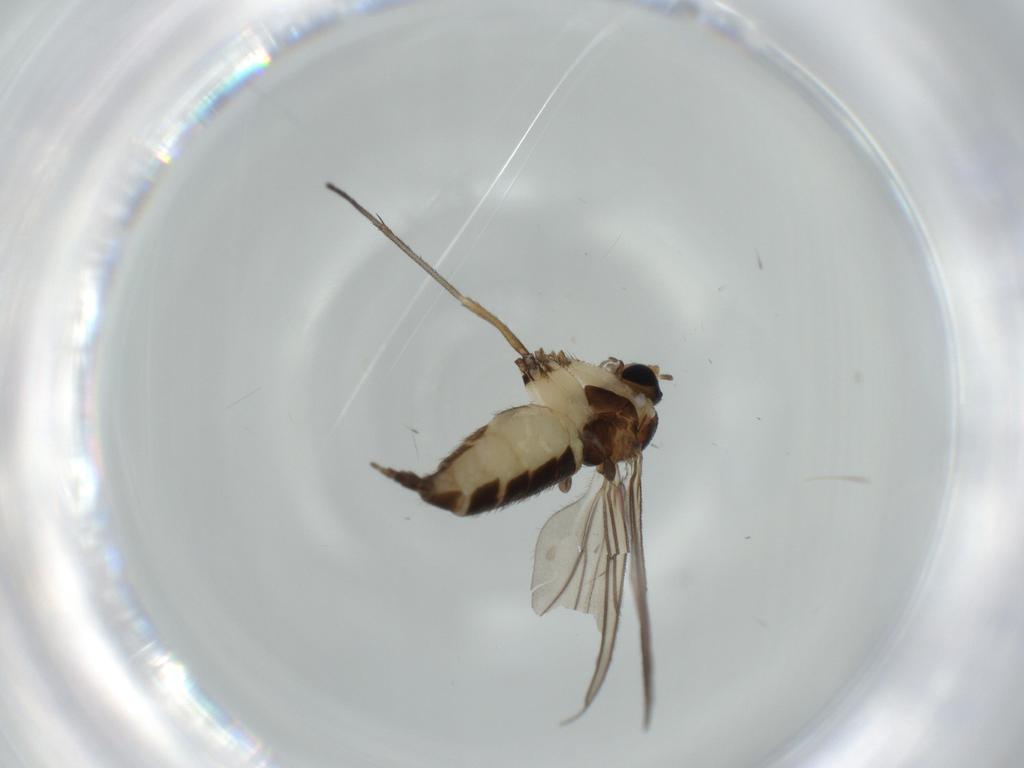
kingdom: Animalia
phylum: Arthropoda
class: Insecta
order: Diptera
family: Sciaridae
